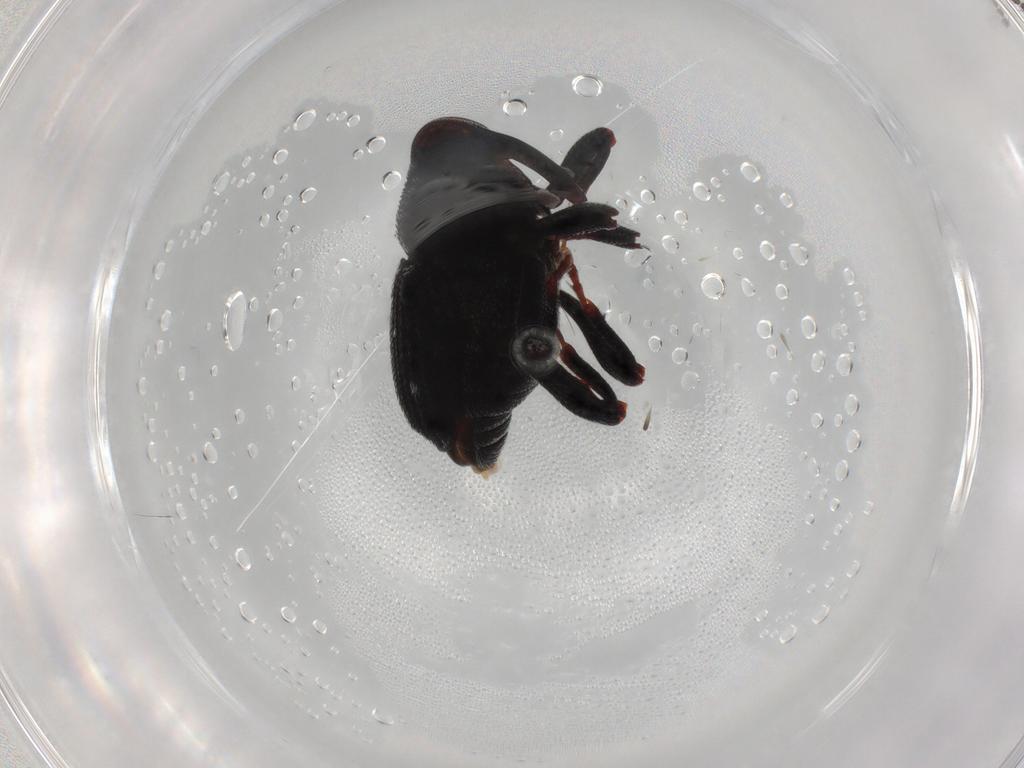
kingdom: Animalia
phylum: Arthropoda
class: Insecta
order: Coleoptera
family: Curculionidae
